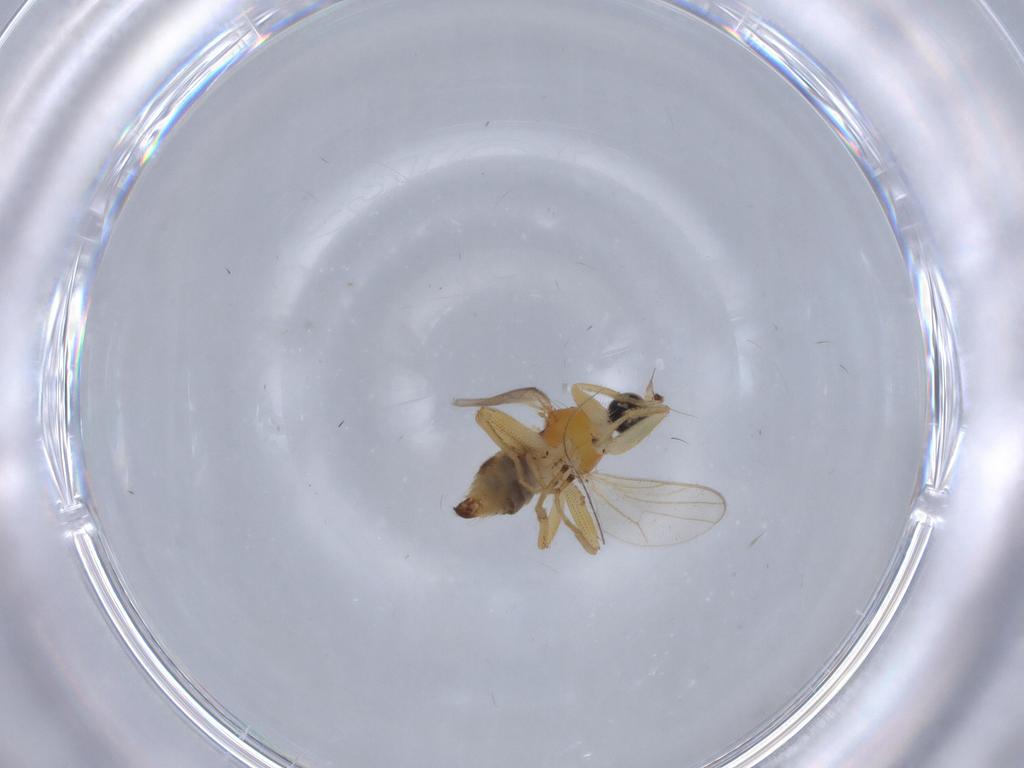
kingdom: Animalia
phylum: Arthropoda
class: Insecta
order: Diptera
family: Hybotidae
